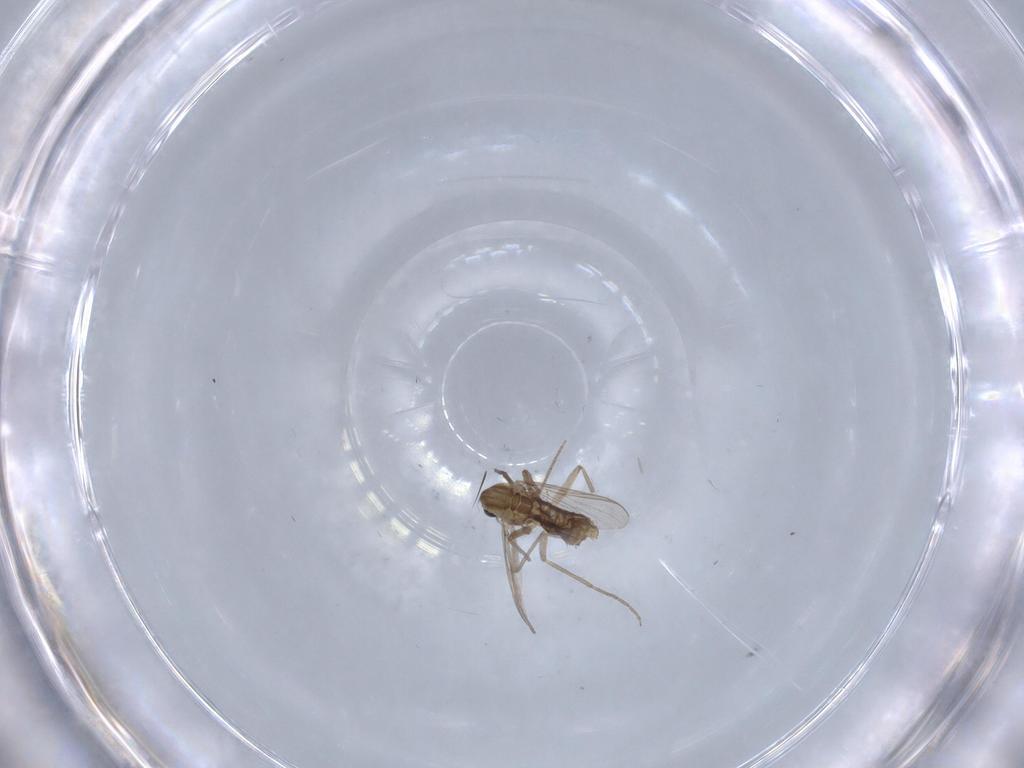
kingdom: Animalia
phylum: Arthropoda
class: Insecta
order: Diptera
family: Chironomidae
